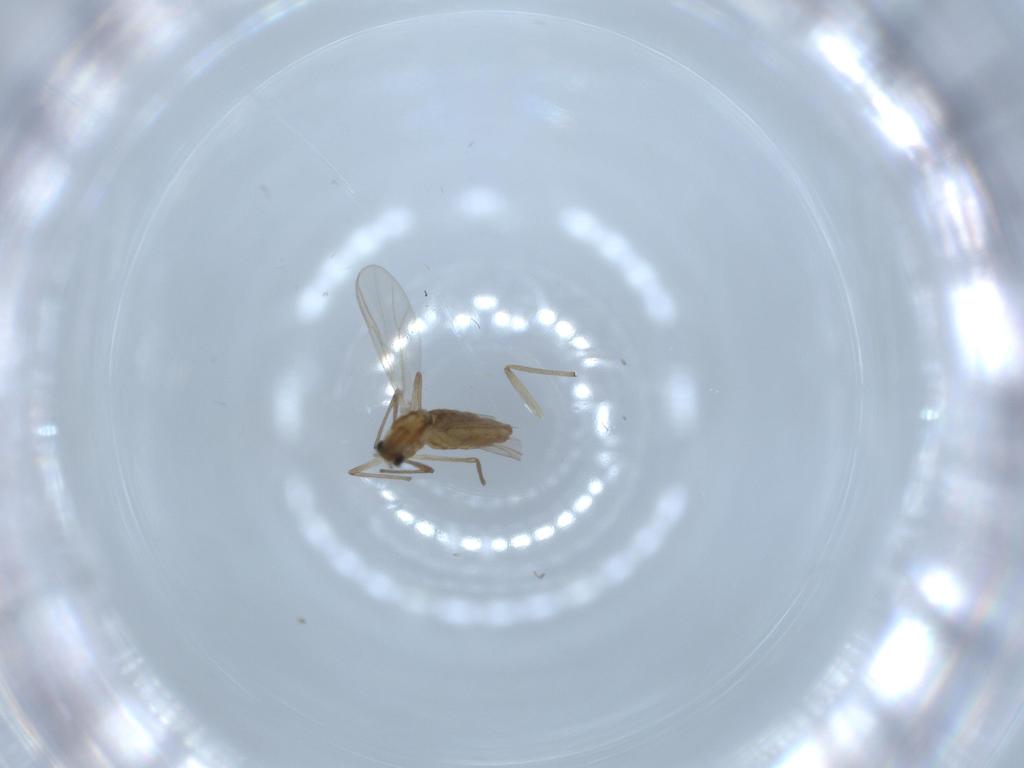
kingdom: Animalia
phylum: Arthropoda
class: Insecta
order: Diptera
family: Chironomidae
